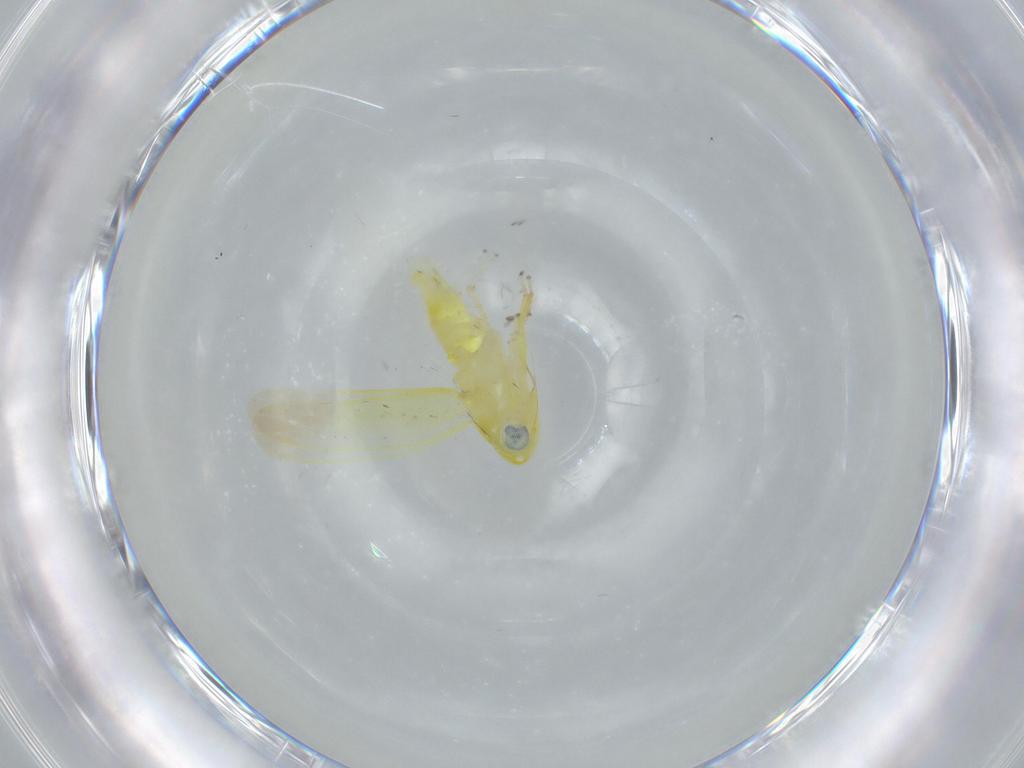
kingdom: Animalia
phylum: Arthropoda
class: Insecta
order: Hemiptera
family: Cicadellidae
